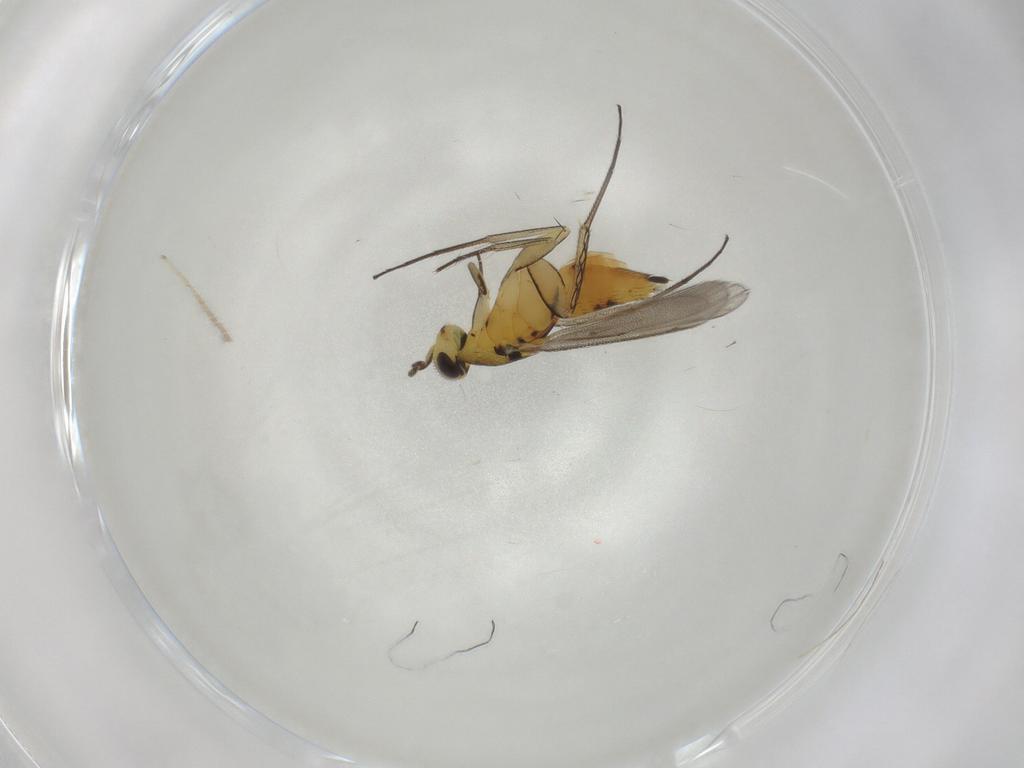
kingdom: Animalia
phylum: Arthropoda
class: Insecta
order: Hymenoptera
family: Eulophidae
